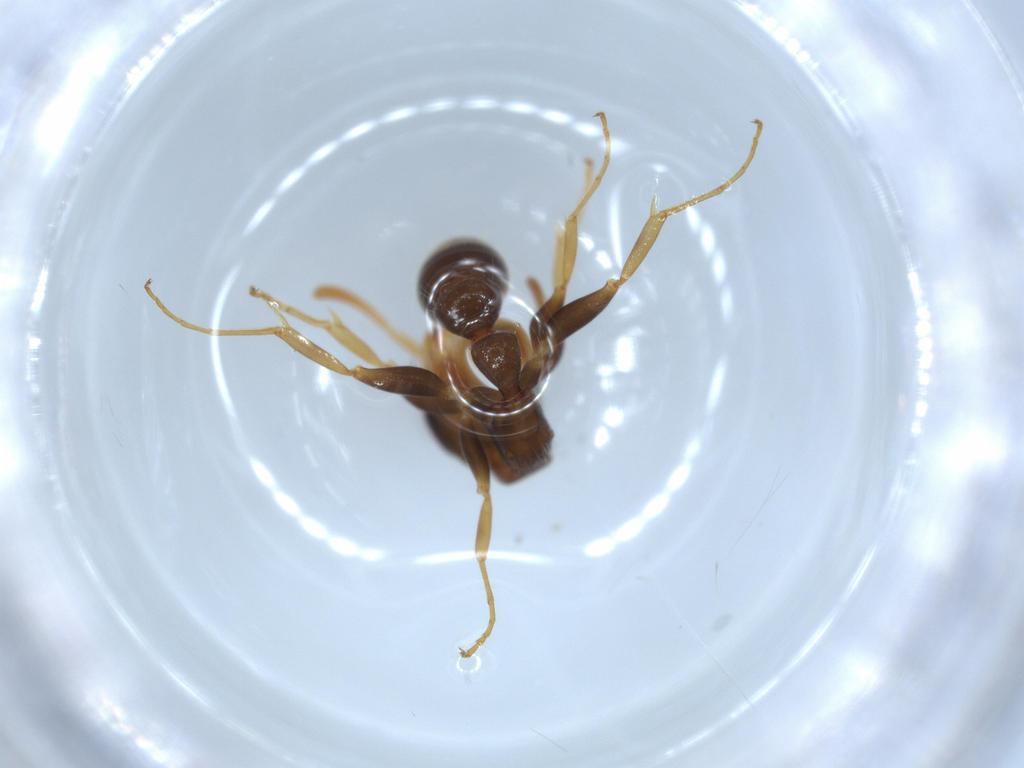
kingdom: Animalia
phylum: Arthropoda
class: Insecta
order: Hymenoptera
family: Formicidae
